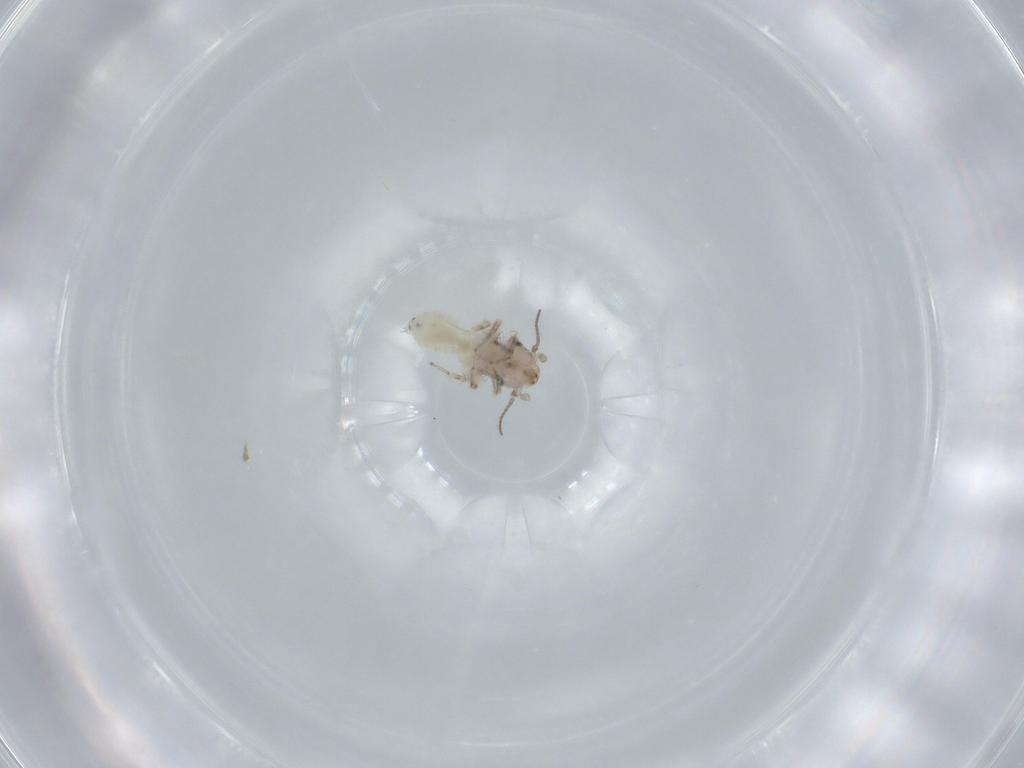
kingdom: Animalia
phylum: Arthropoda
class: Insecta
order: Psocodea
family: Lepidopsocidae
